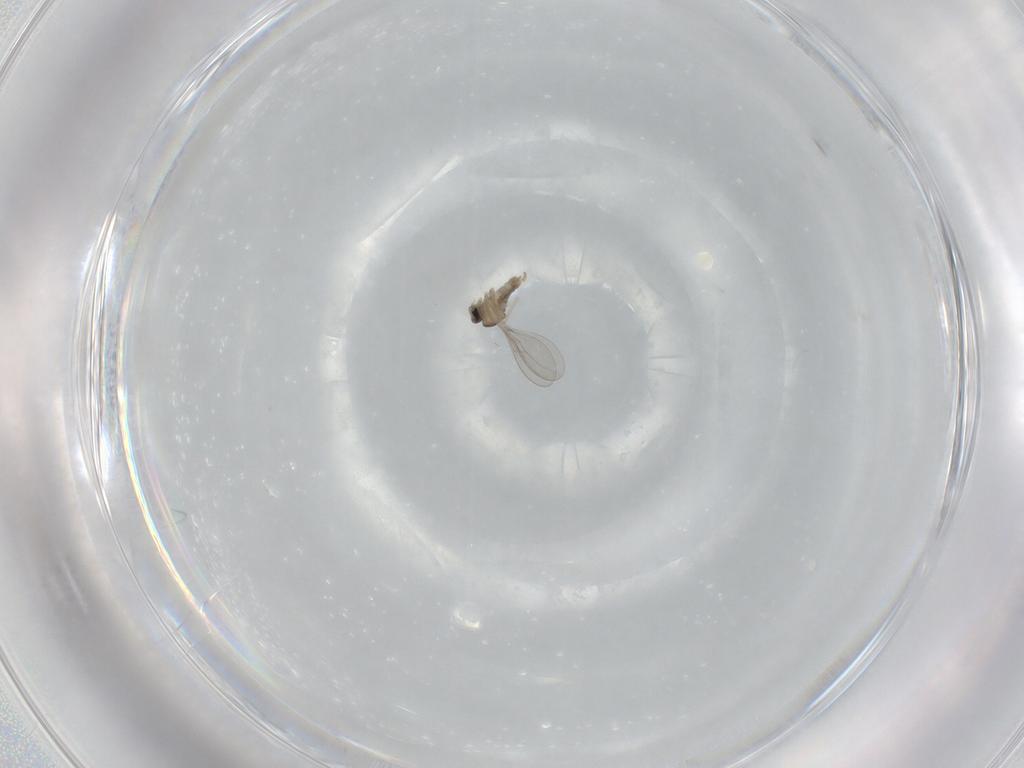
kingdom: Animalia
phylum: Arthropoda
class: Insecta
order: Diptera
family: Cecidomyiidae
